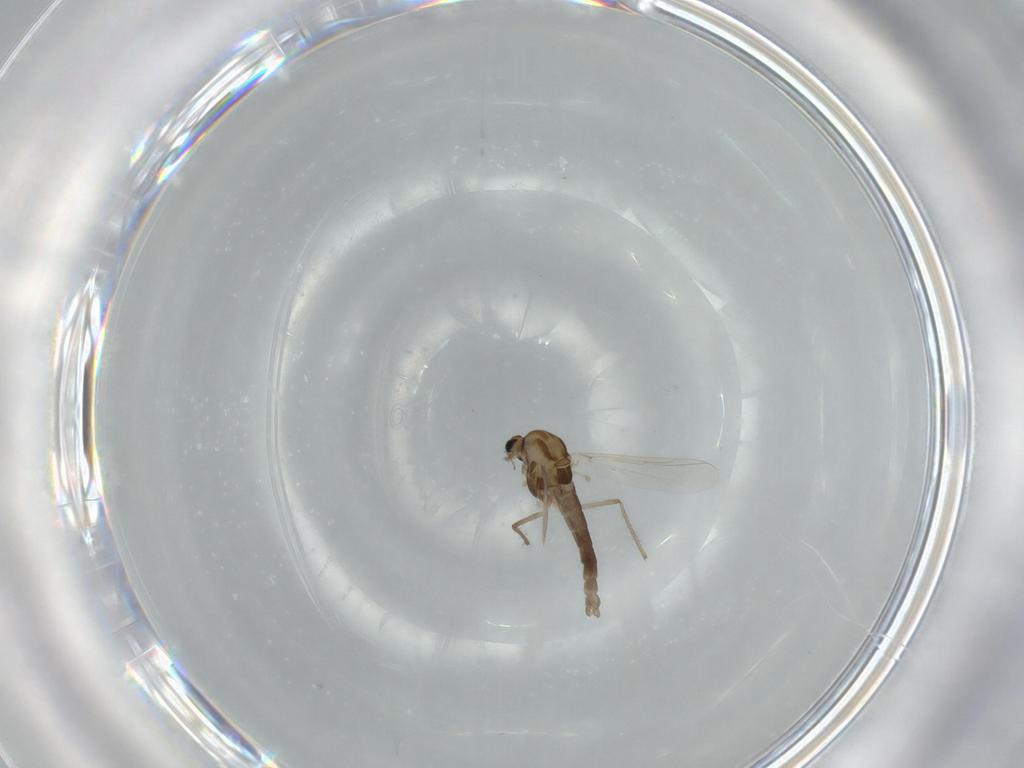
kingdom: Animalia
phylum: Arthropoda
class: Insecta
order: Diptera
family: Chironomidae
